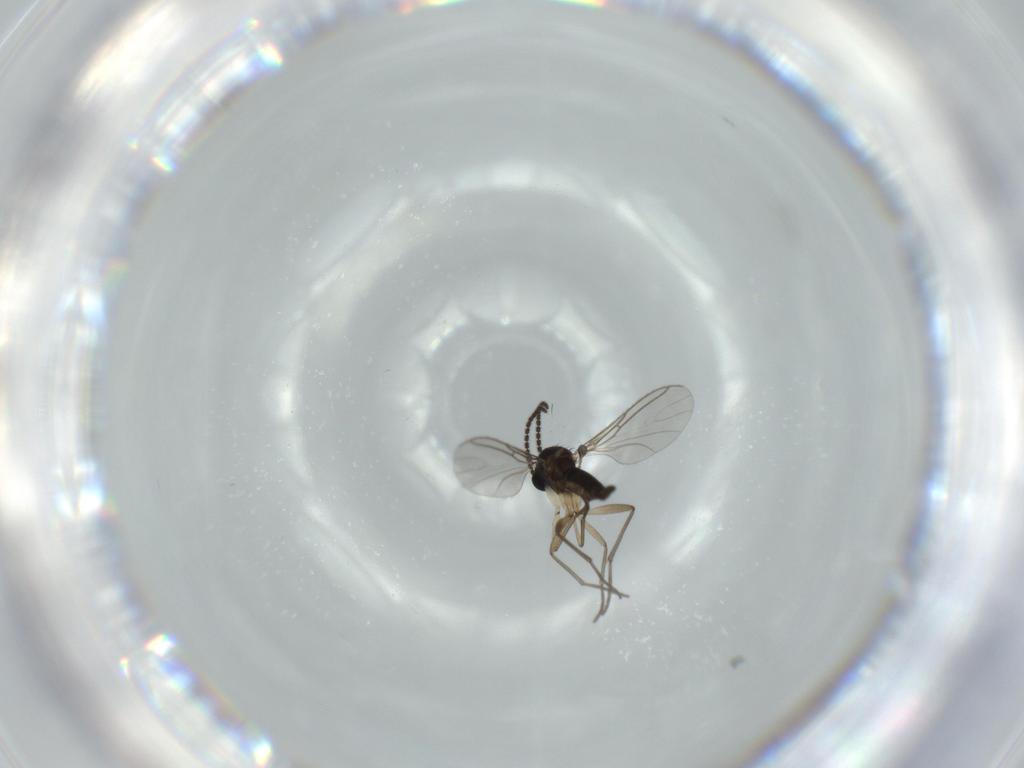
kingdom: Animalia
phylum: Arthropoda
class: Insecta
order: Diptera
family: Sciaridae
